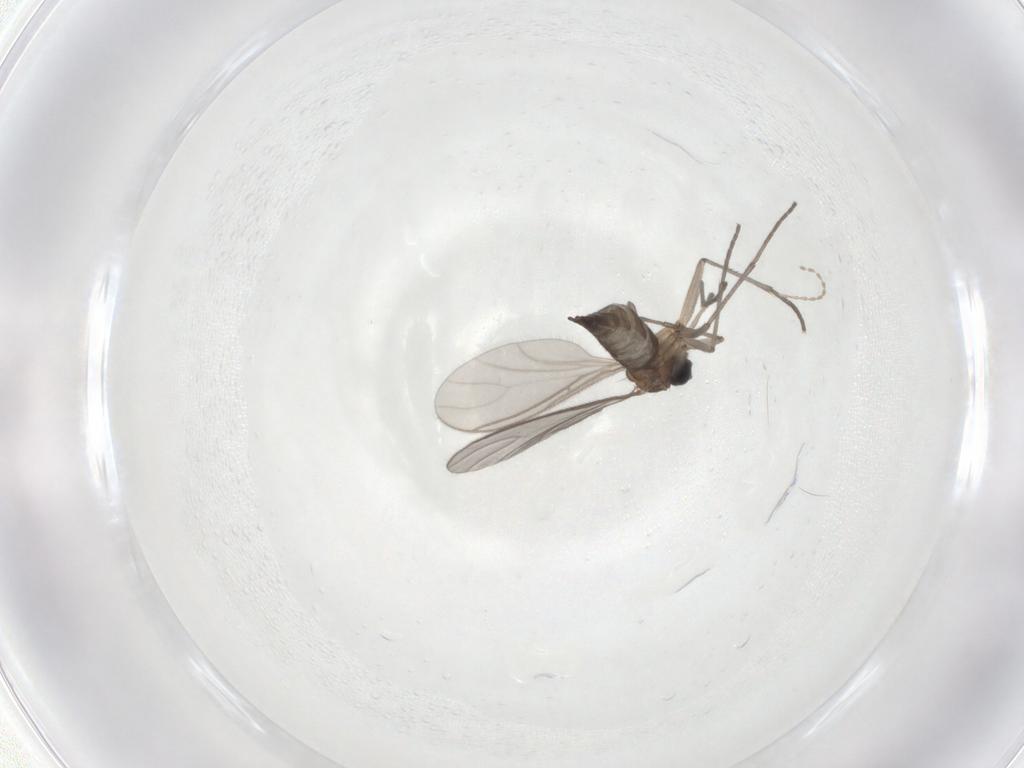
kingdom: Animalia
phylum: Arthropoda
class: Insecta
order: Diptera
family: Cecidomyiidae
